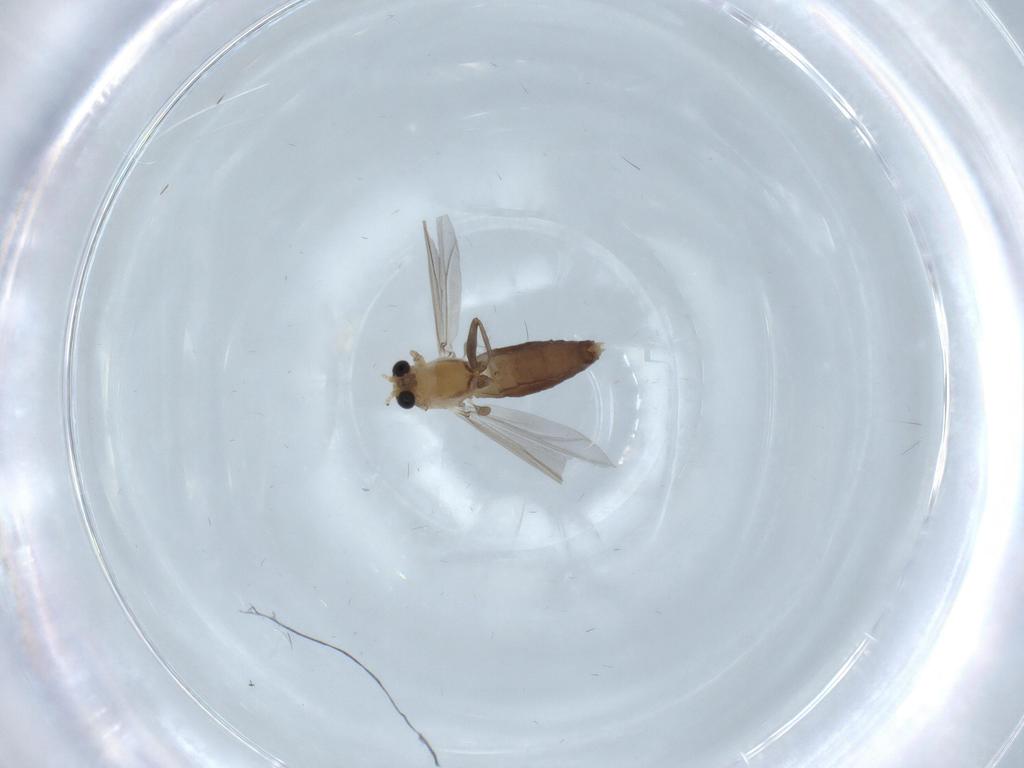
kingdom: Animalia
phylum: Arthropoda
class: Insecta
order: Diptera
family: Chironomidae
